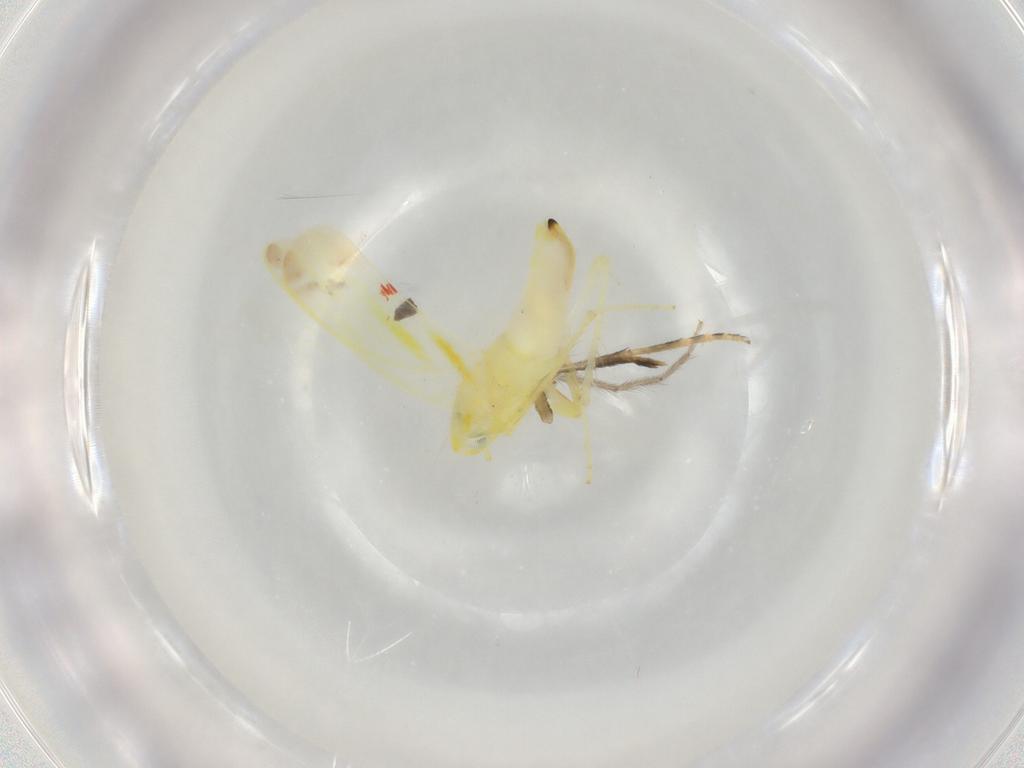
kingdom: Animalia
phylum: Arthropoda
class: Insecta
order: Hemiptera
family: Cicadellidae
